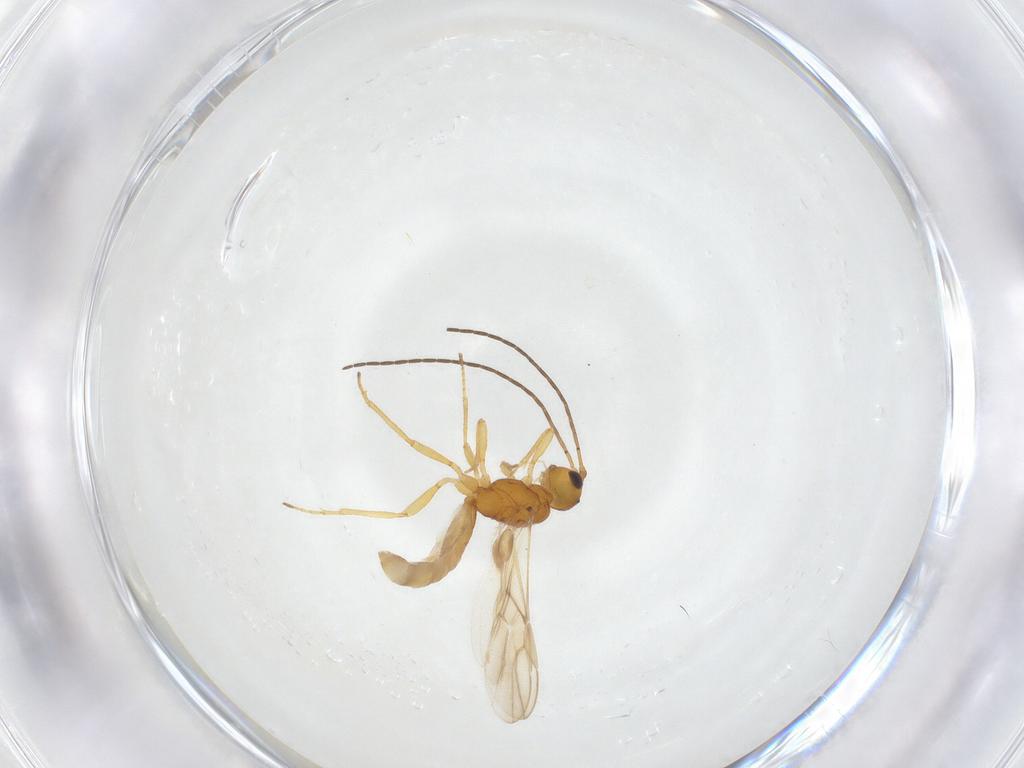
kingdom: Animalia
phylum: Arthropoda
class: Insecta
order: Hymenoptera
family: Braconidae
